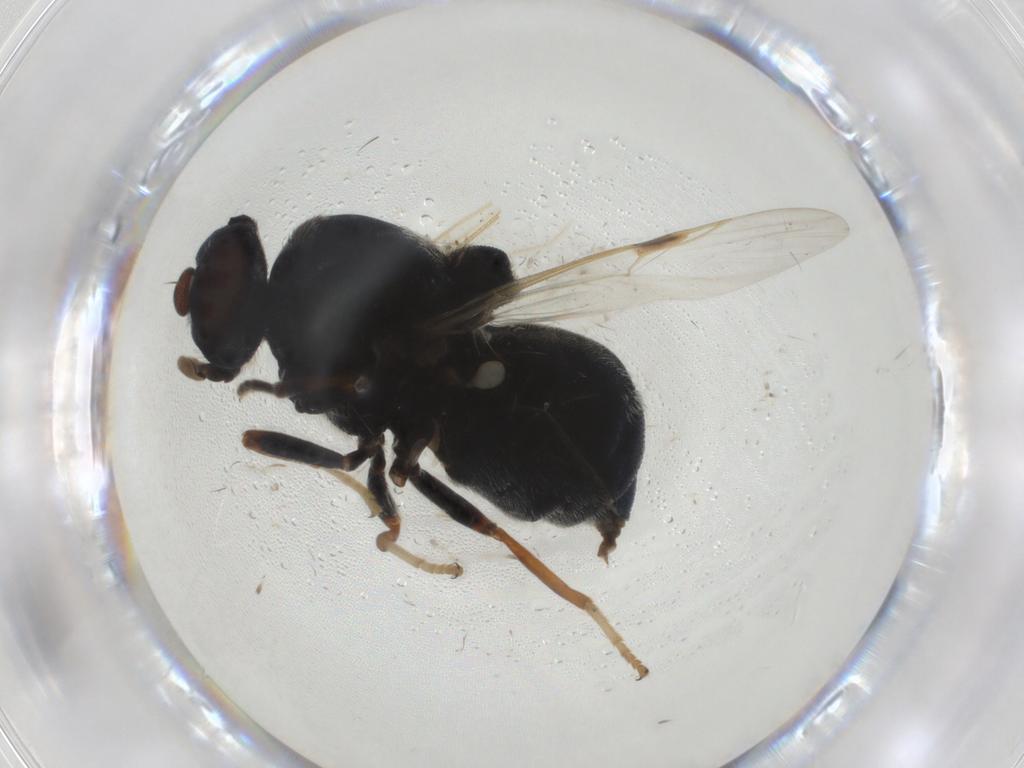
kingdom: Animalia
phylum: Arthropoda
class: Insecta
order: Diptera
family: Stratiomyidae
